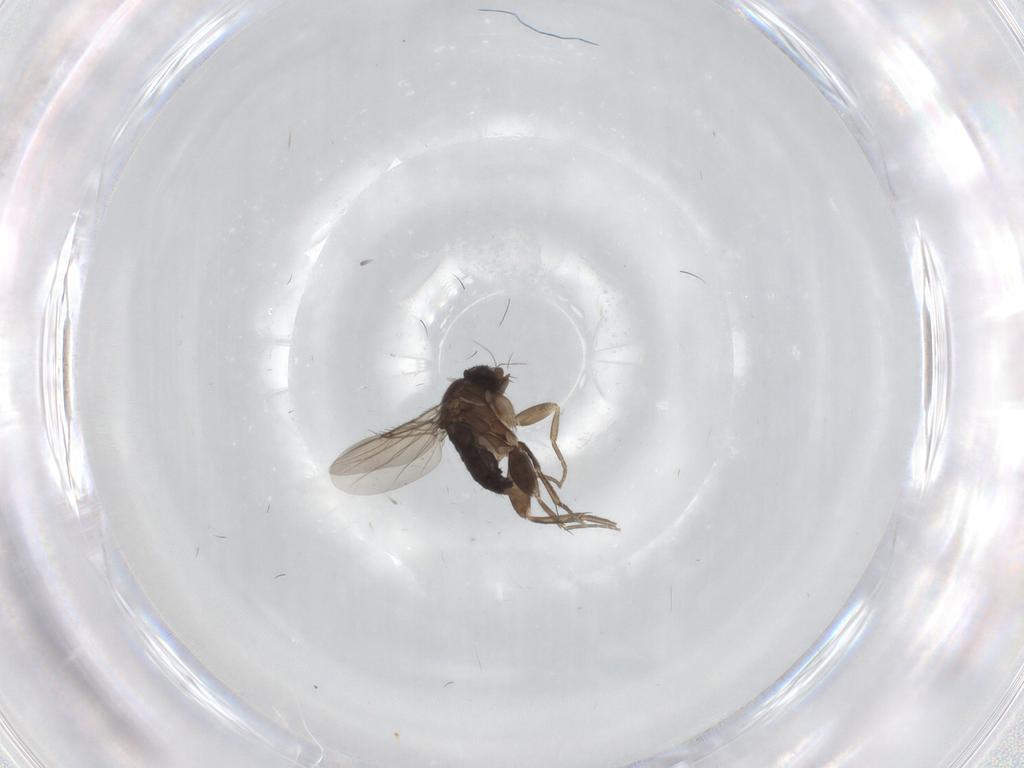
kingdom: Animalia
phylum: Arthropoda
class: Insecta
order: Diptera
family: Phoridae
